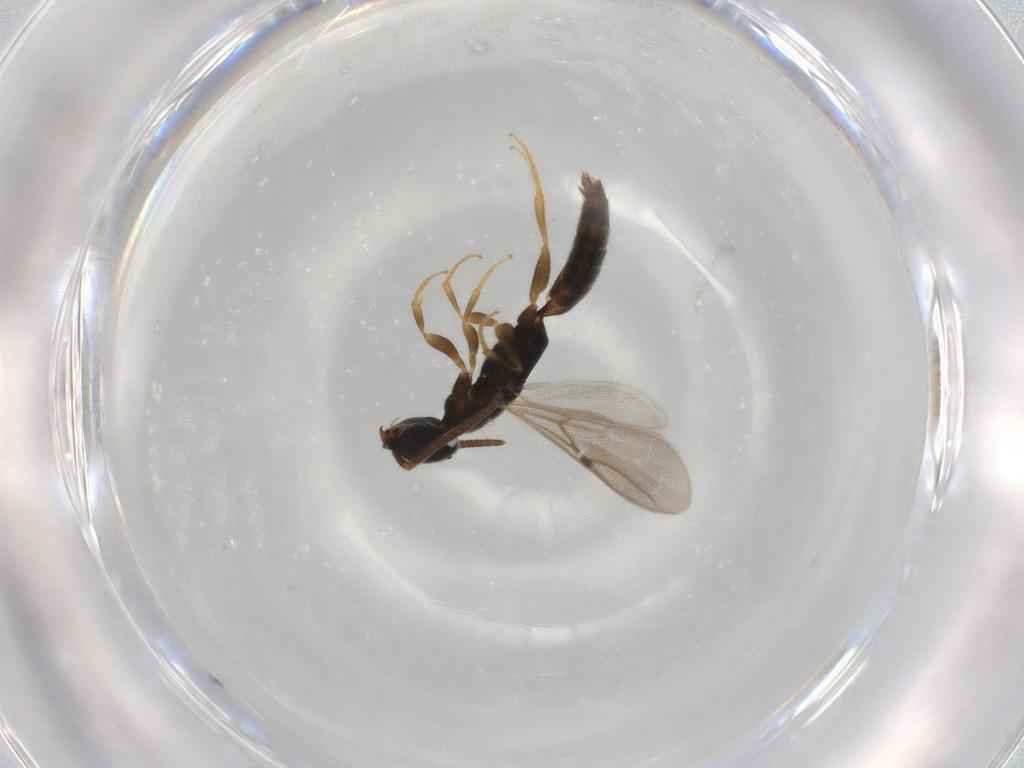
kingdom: Animalia
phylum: Arthropoda
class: Insecta
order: Hymenoptera
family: Bethylidae
